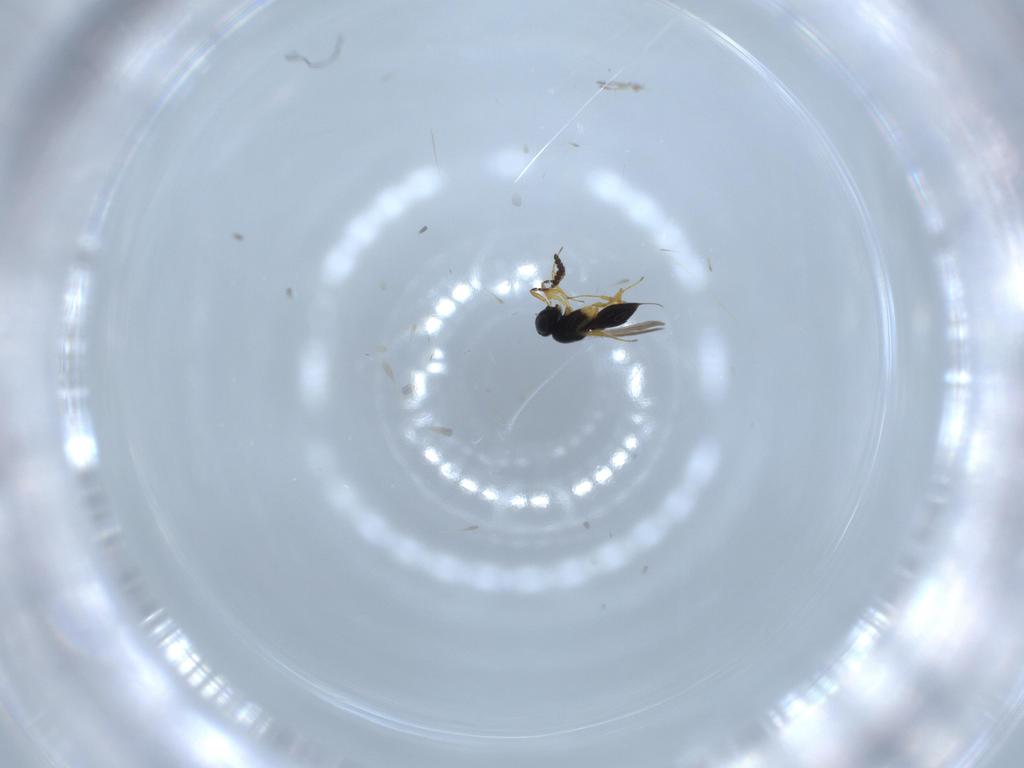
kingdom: Animalia
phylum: Arthropoda
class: Insecta
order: Hymenoptera
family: Scelionidae
